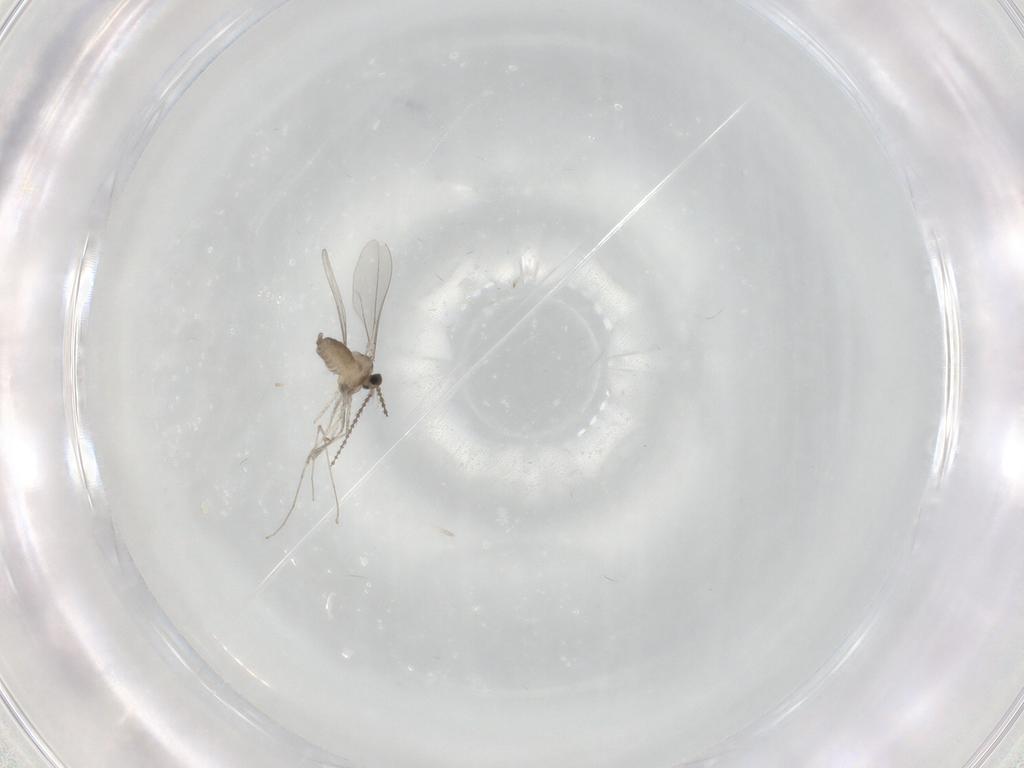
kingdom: Animalia
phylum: Arthropoda
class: Insecta
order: Diptera
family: Cecidomyiidae
